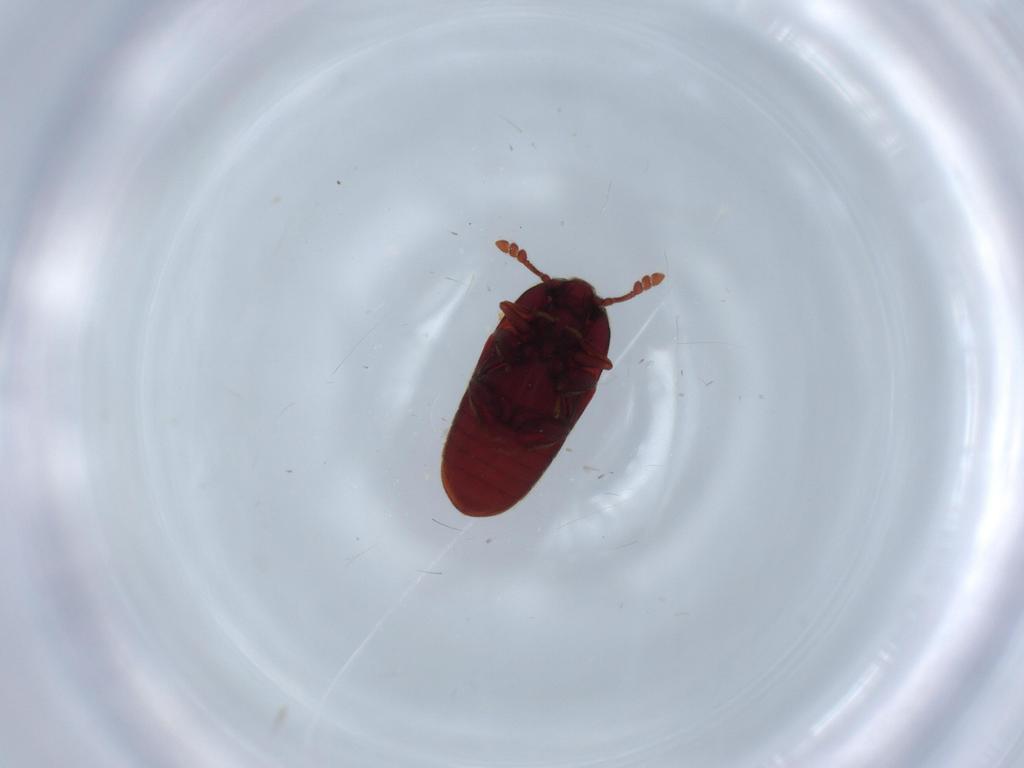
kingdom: Animalia
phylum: Arthropoda
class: Insecta
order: Coleoptera
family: Throscidae
